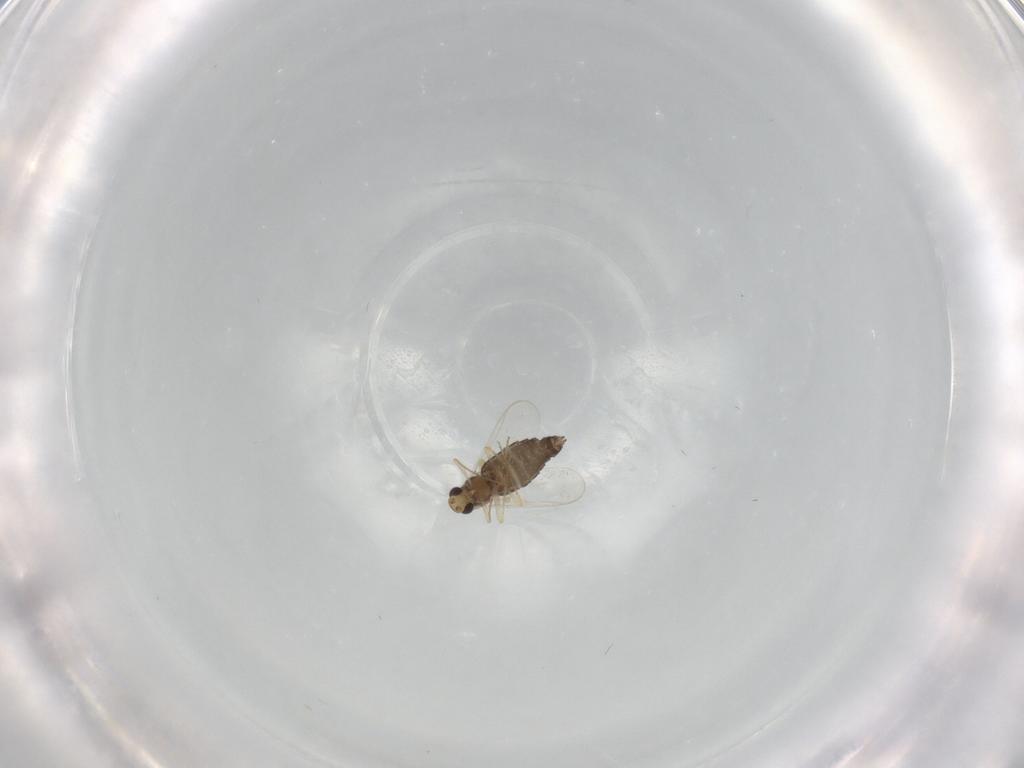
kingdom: Animalia
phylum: Arthropoda
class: Insecta
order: Diptera
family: Chironomidae
